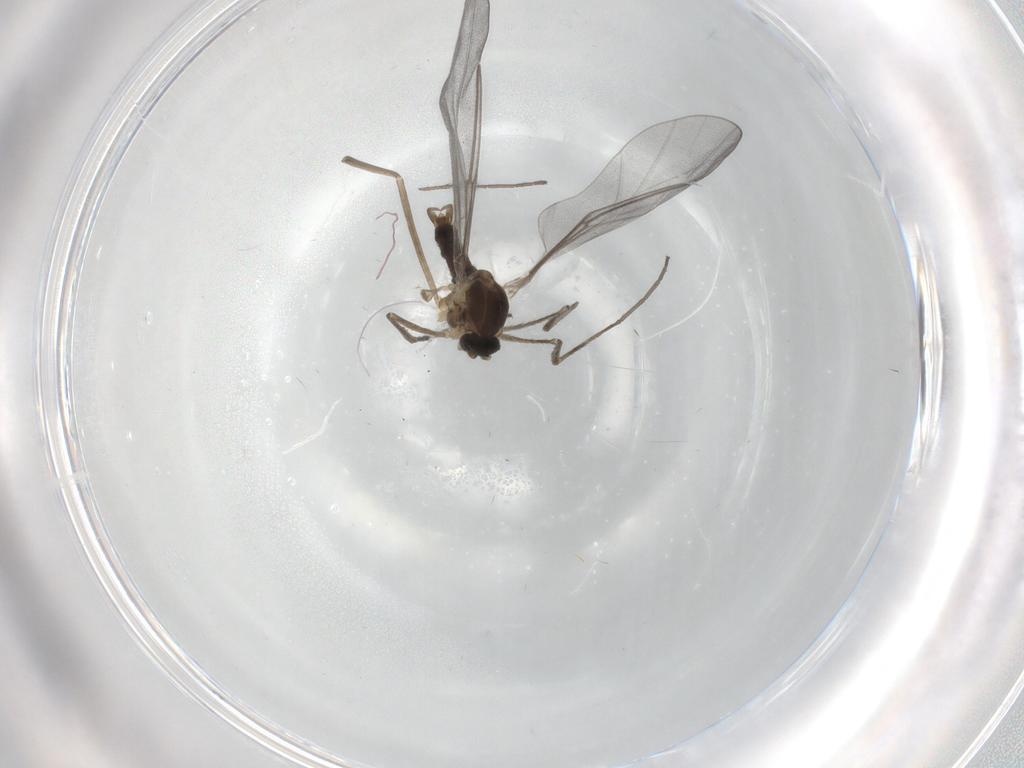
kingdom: Animalia
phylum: Arthropoda
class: Insecta
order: Diptera
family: Cecidomyiidae
